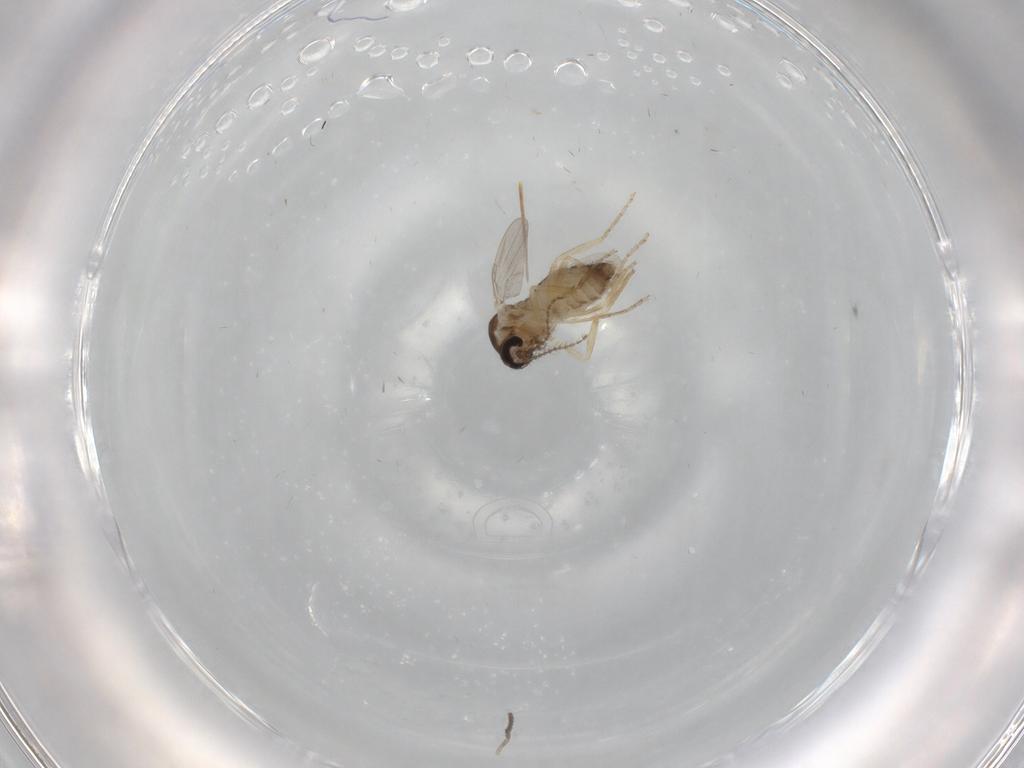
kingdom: Animalia
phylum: Arthropoda
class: Insecta
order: Diptera
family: Ceratopogonidae
